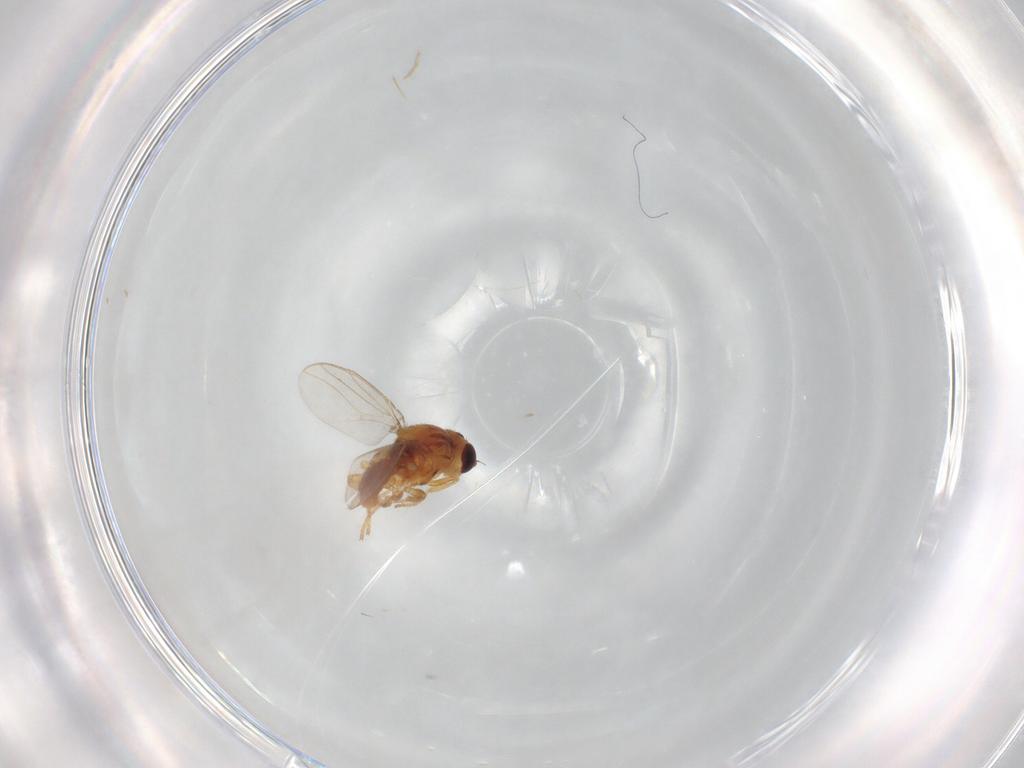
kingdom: Animalia
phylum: Arthropoda
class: Insecta
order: Diptera
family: Chloropidae
